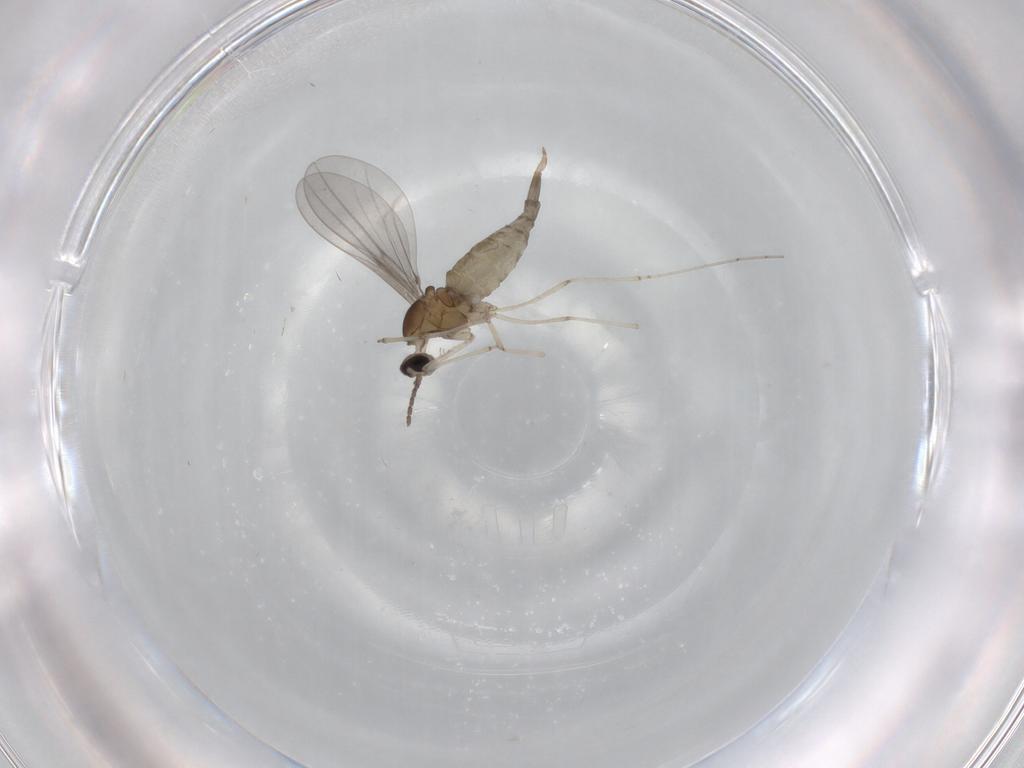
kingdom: Animalia
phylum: Arthropoda
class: Insecta
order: Diptera
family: Cecidomyiidae
